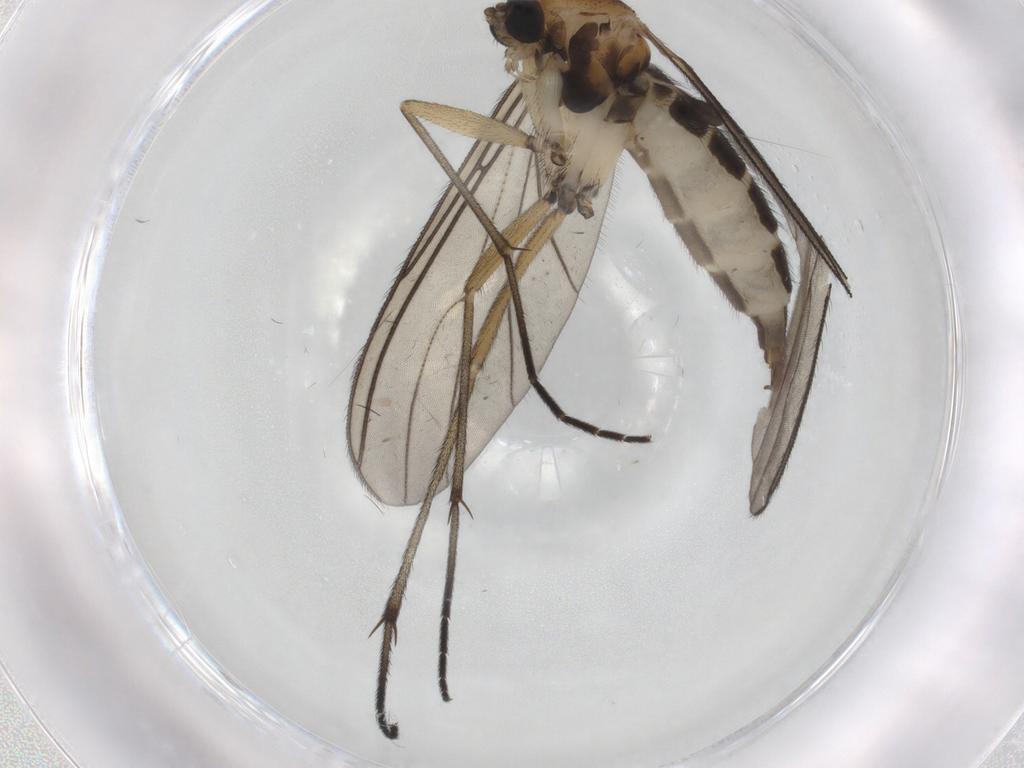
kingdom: Animalia
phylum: Arthropoda
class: Insecta
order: Diptera
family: Sciaridae
